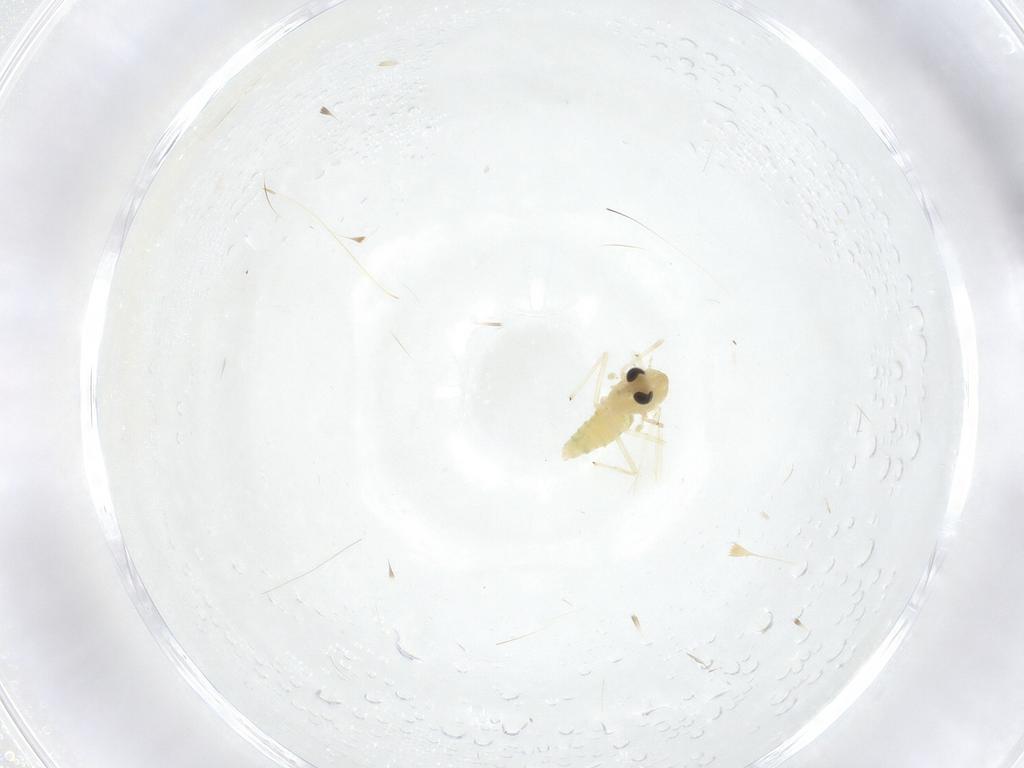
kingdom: Animalia
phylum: Arthropoda
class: Insecta
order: Diptera
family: Chironomidae
